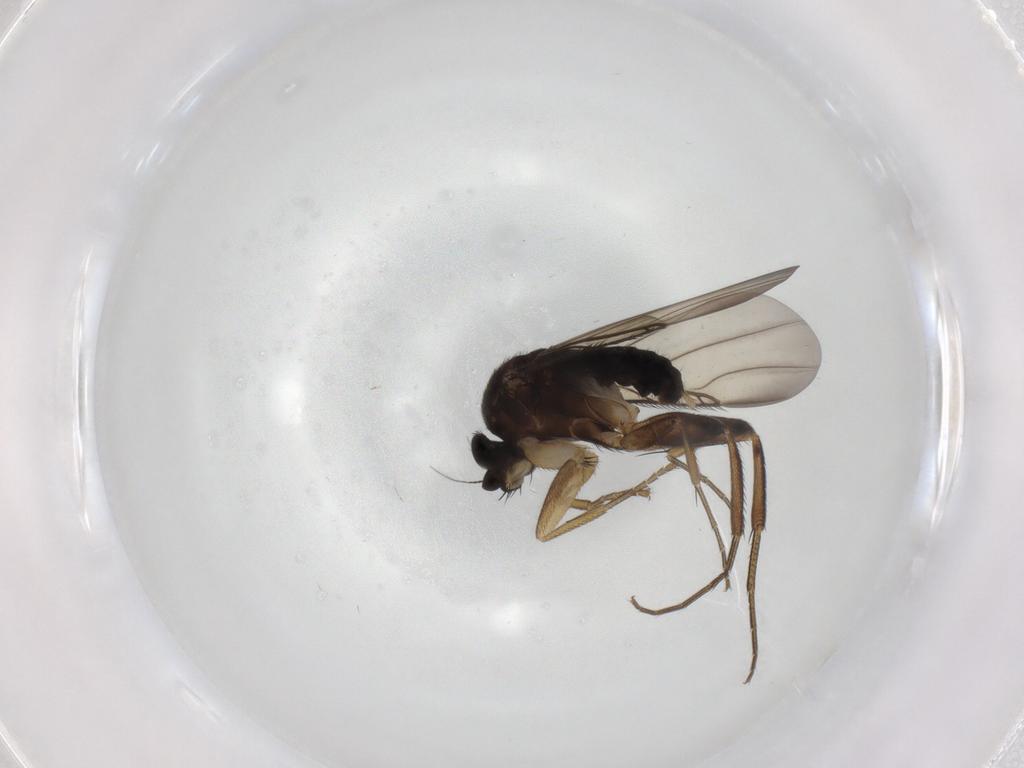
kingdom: Animalia
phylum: Arthropoda
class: Insecta
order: Diptera
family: Phoridae
